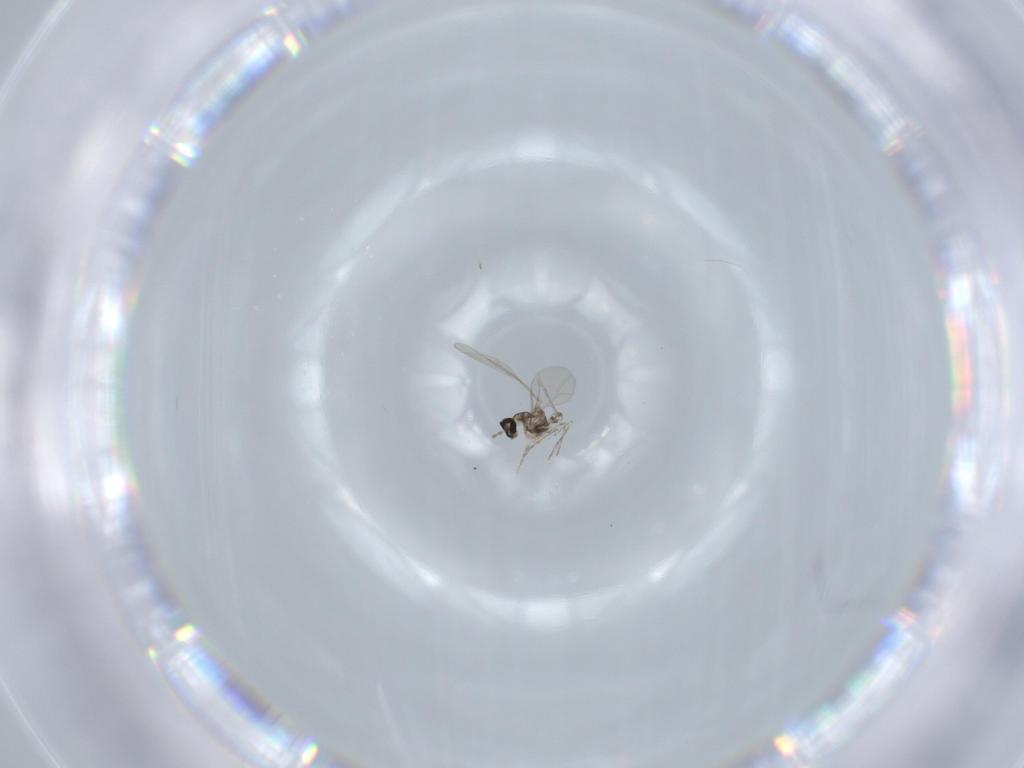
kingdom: Animalia
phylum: Arthropoda
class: Insecta
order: Diptera
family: Cecidomyiidae
